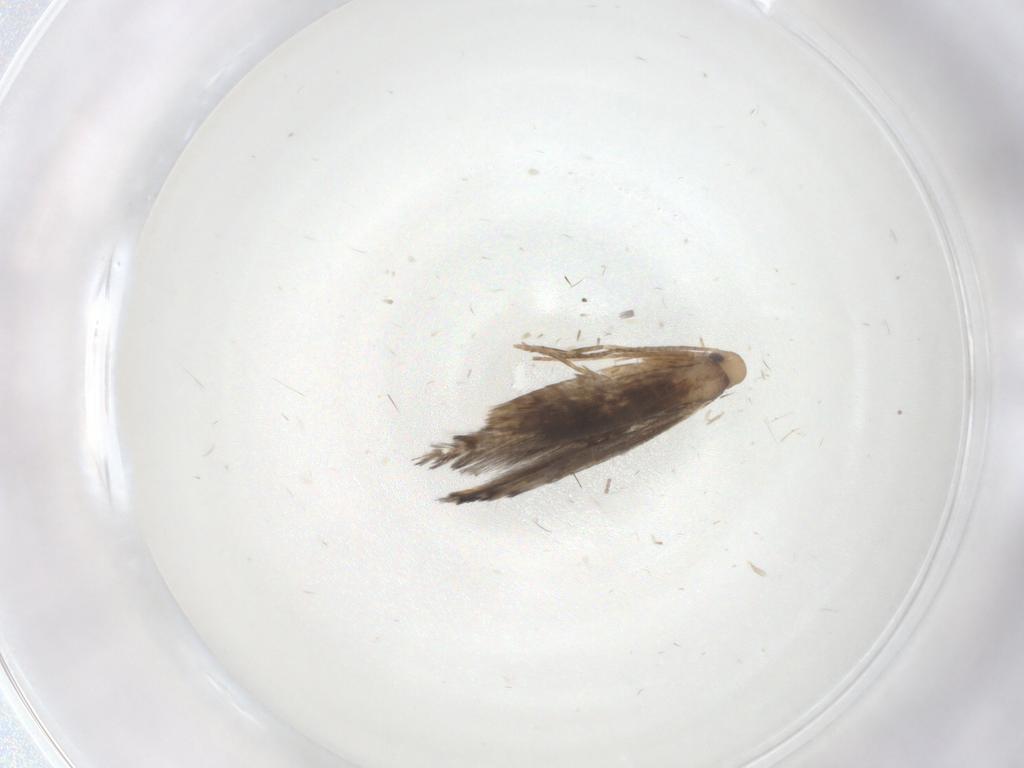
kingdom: Animalia
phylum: Arthropoda
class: Insecta
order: Lepidoptera
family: Gracillariidae
